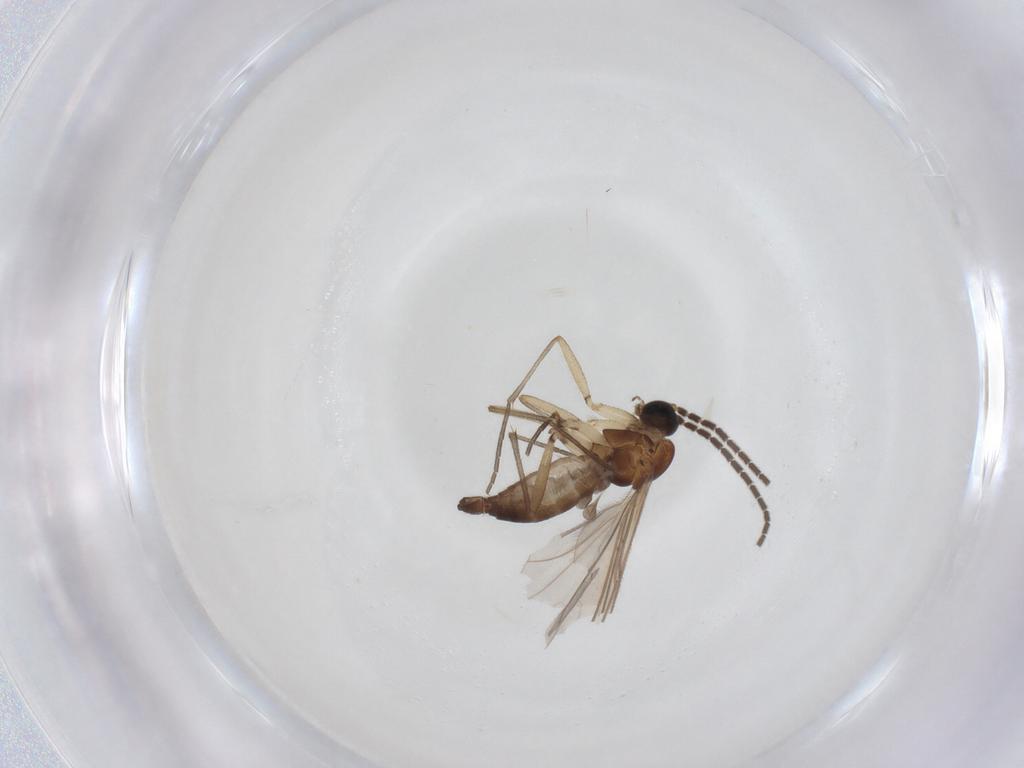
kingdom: Animalia
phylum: Arthropoda
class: Insecta
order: Diptera
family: Sciaridae
